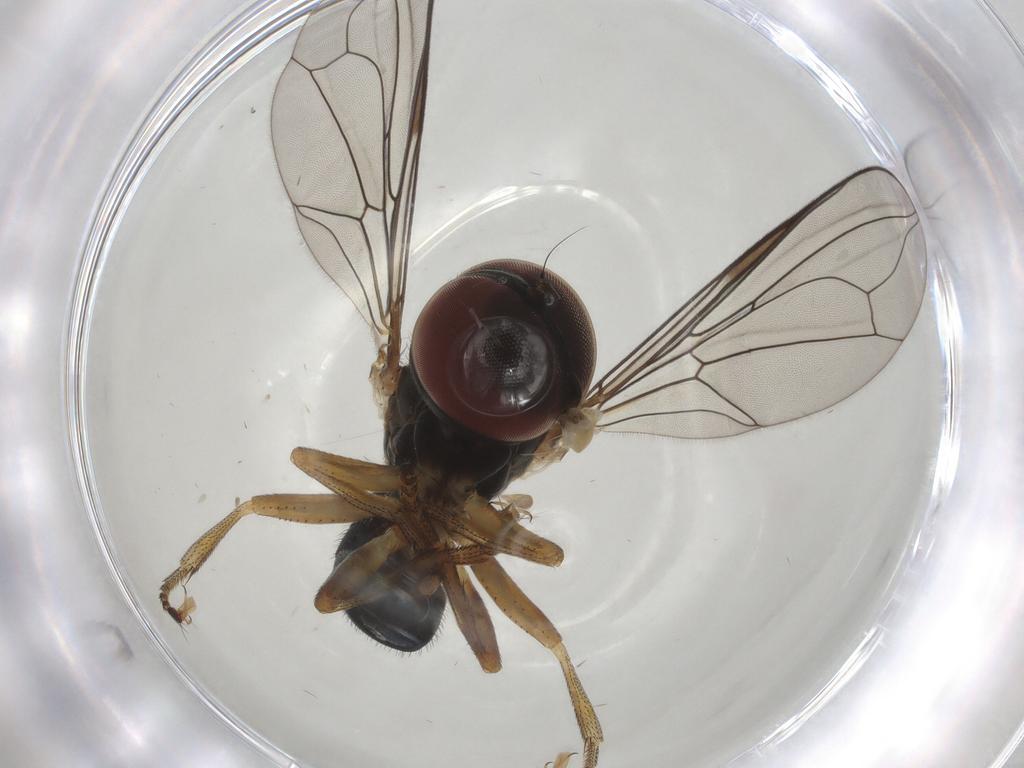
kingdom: Animalia
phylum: Arthropoda
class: Insecta
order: Diptera
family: Pipunculidae
